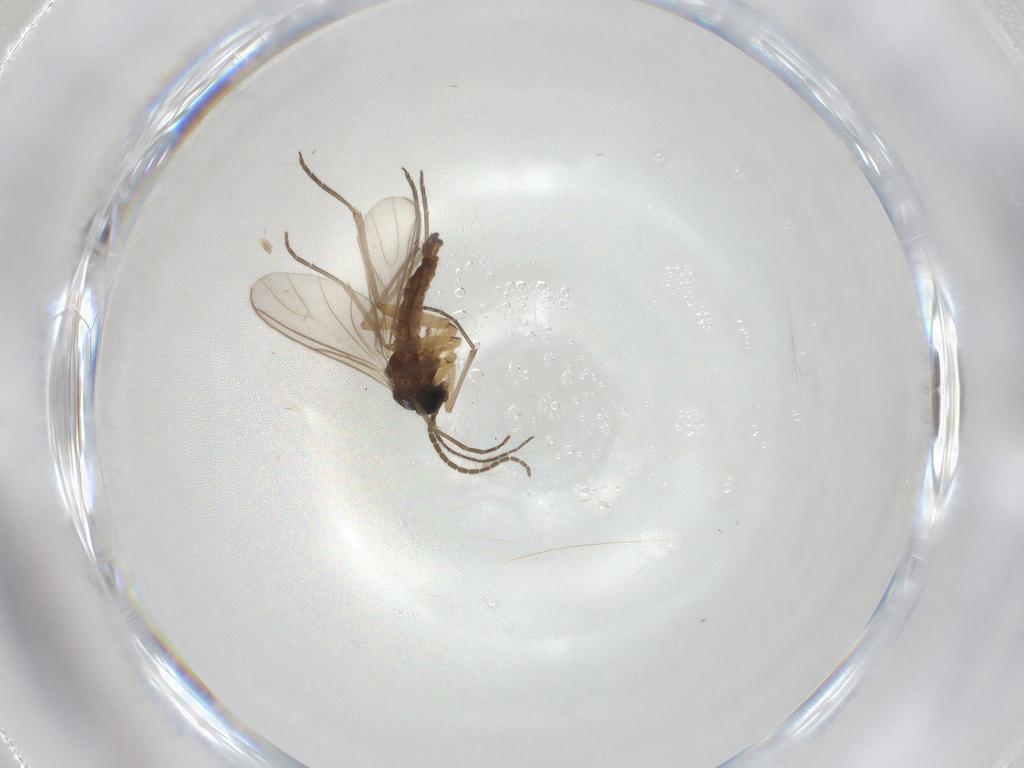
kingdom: Animalia
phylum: Arthropoda
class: Insecta
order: Diptera
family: Sciaridae
